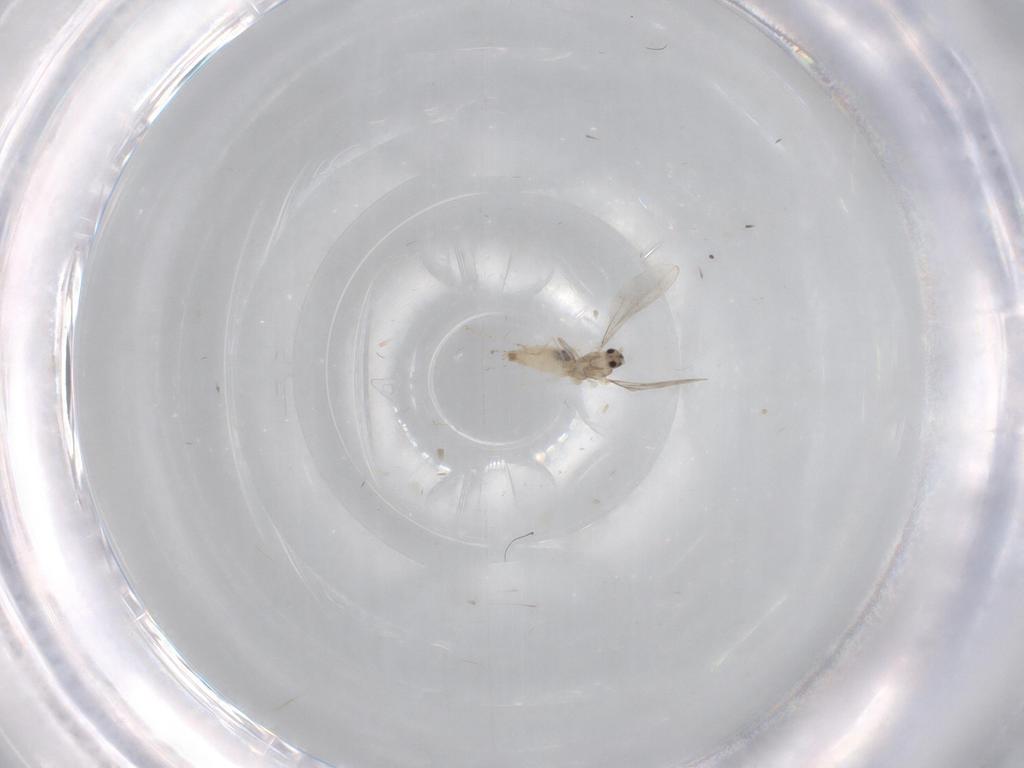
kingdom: Animalia
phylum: Arthropoda
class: Insecta
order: Diptera
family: Cecidomyiidae
